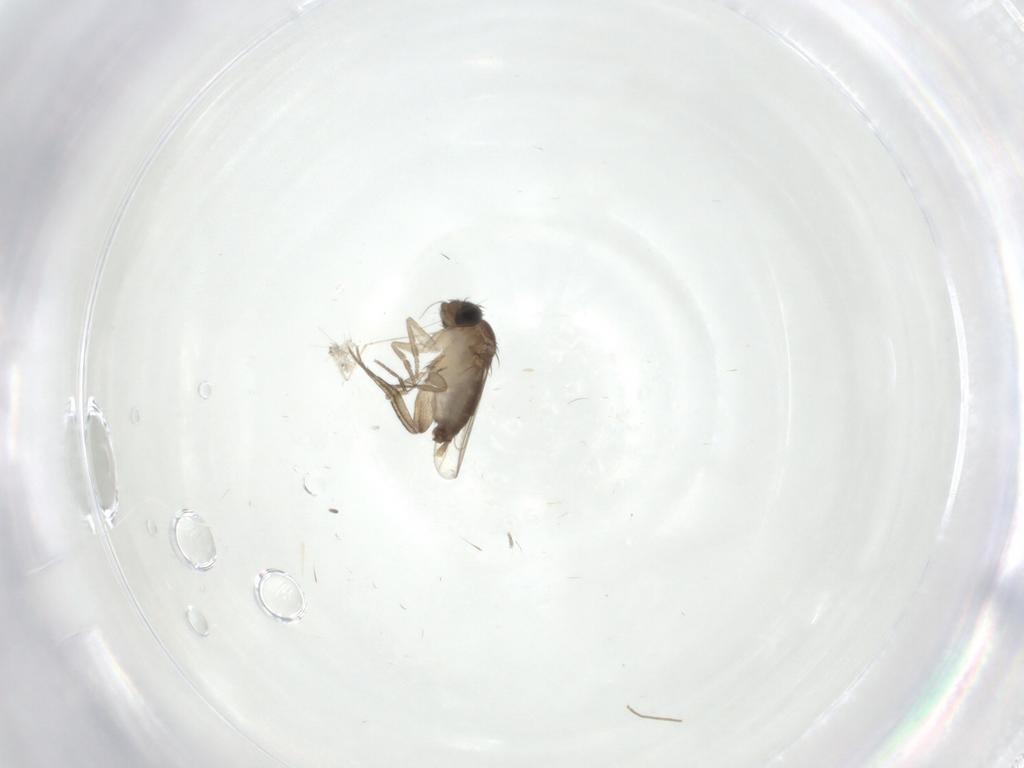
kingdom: Animalia
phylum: Arthropoda
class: Insecta
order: Diptera
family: Phoridae
